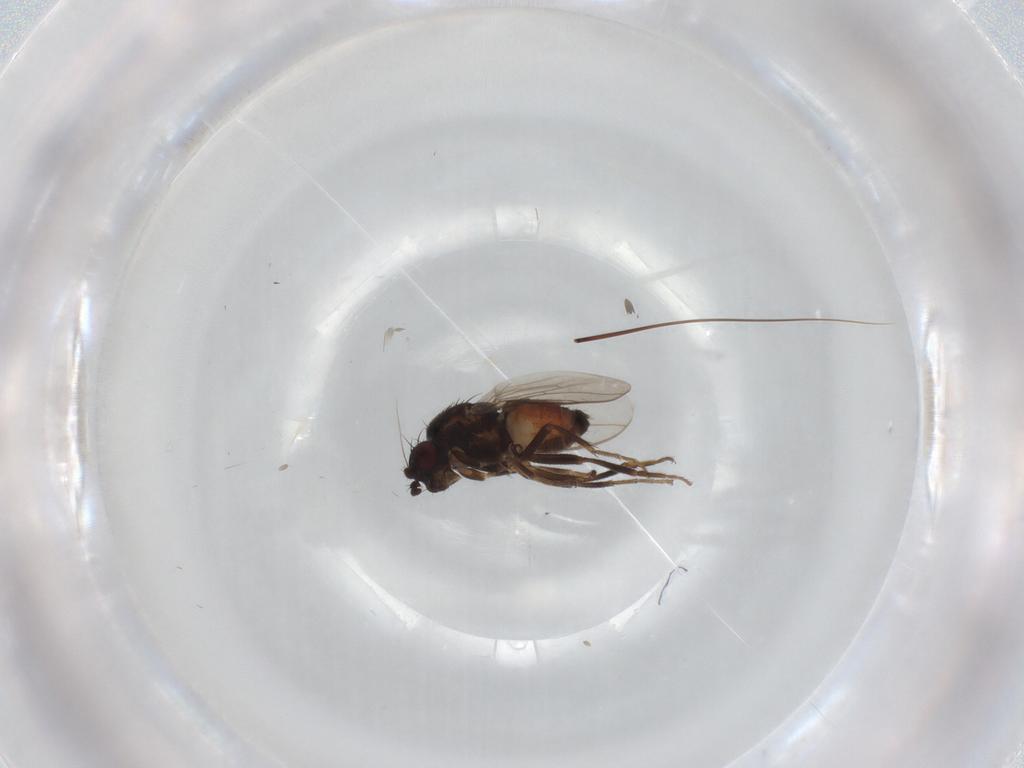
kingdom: Animalia
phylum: Arthropoda
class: Insecta
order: Diptera
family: Sphaeroceridae
